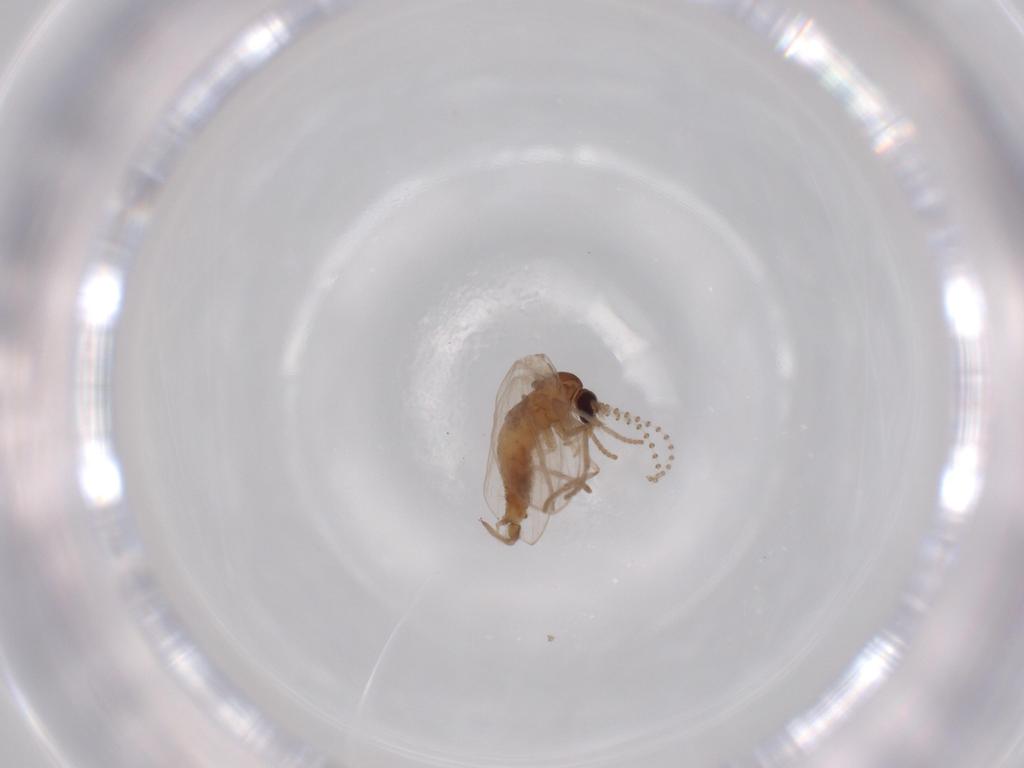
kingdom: Animalia
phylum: Arthropoda
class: Insecta
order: Diptera
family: Psychodidae
